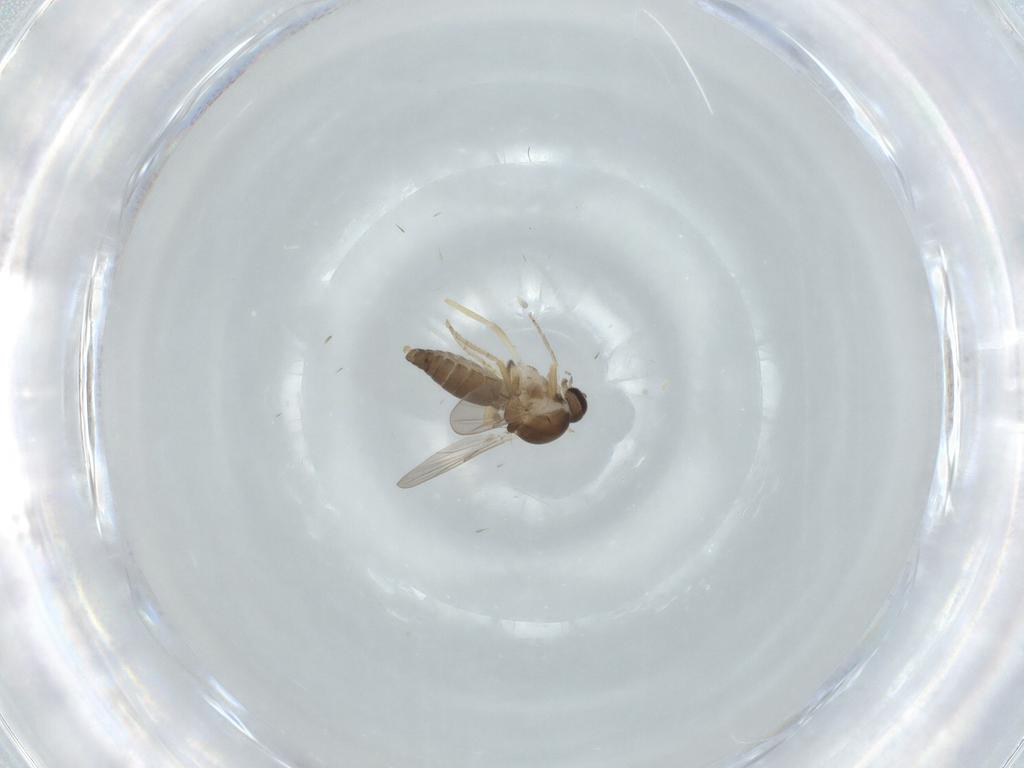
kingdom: Animalia
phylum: Arthropoda
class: Insecta
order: Diptera
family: Ceratopogonidae
